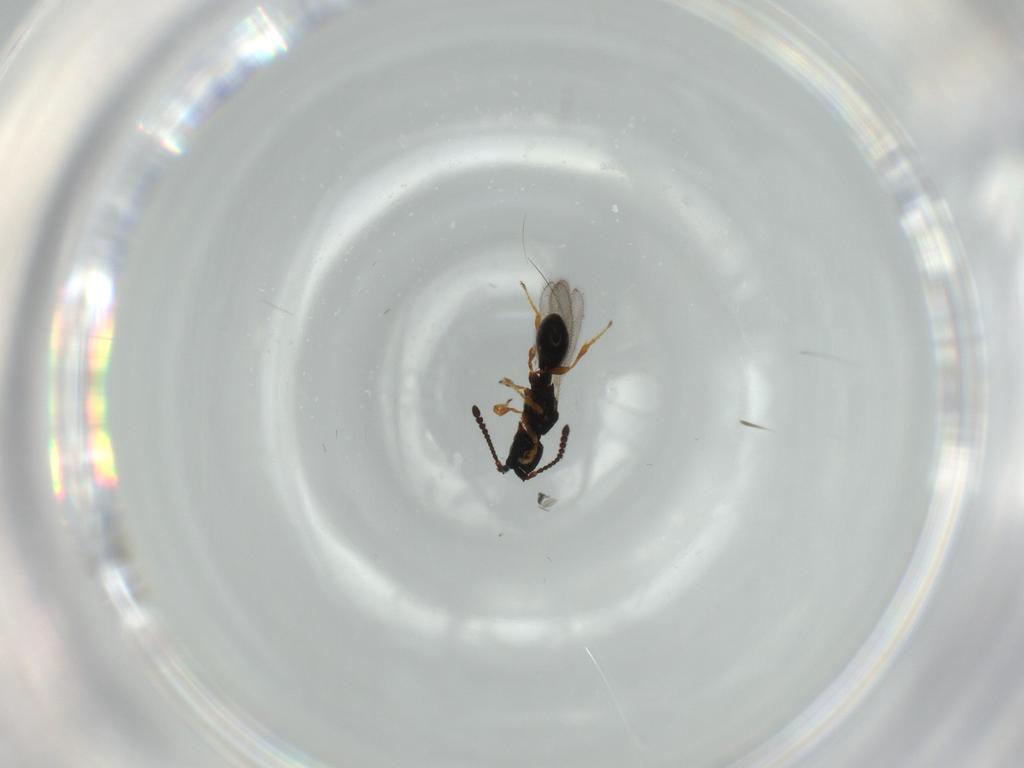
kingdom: Animalia
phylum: Arthropoda
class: Insecta
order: Hymenoptera
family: Diapriidae
